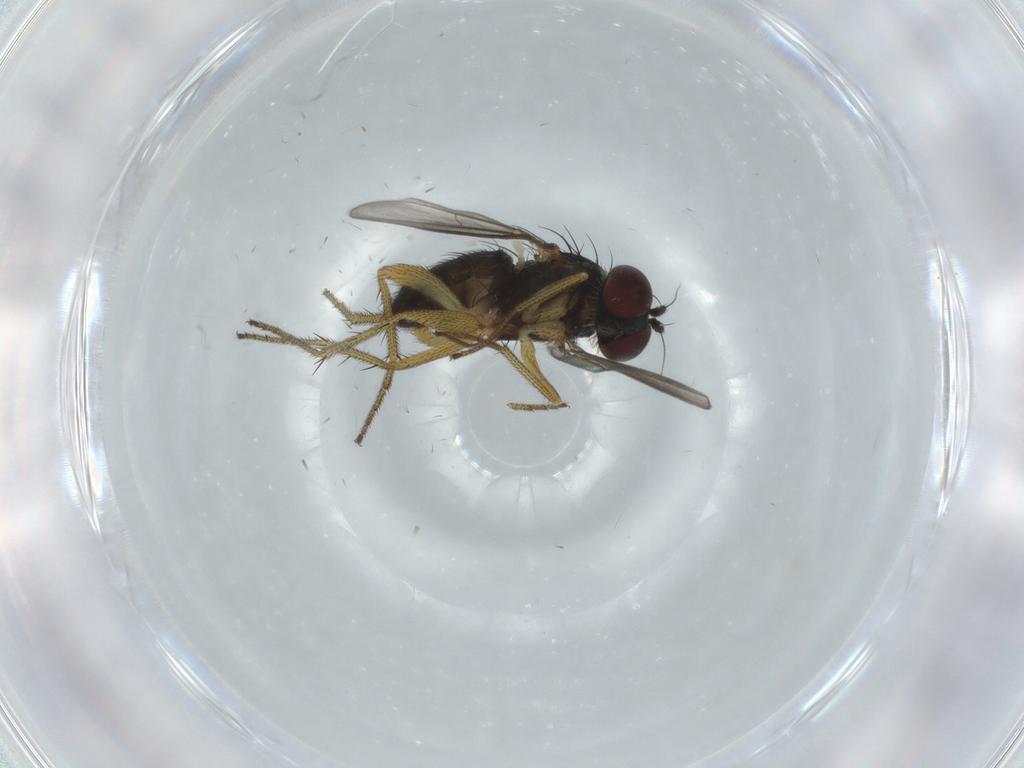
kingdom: Animalia
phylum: Arthropoda
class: Insecta
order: Diptera
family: Dolichopodidae
